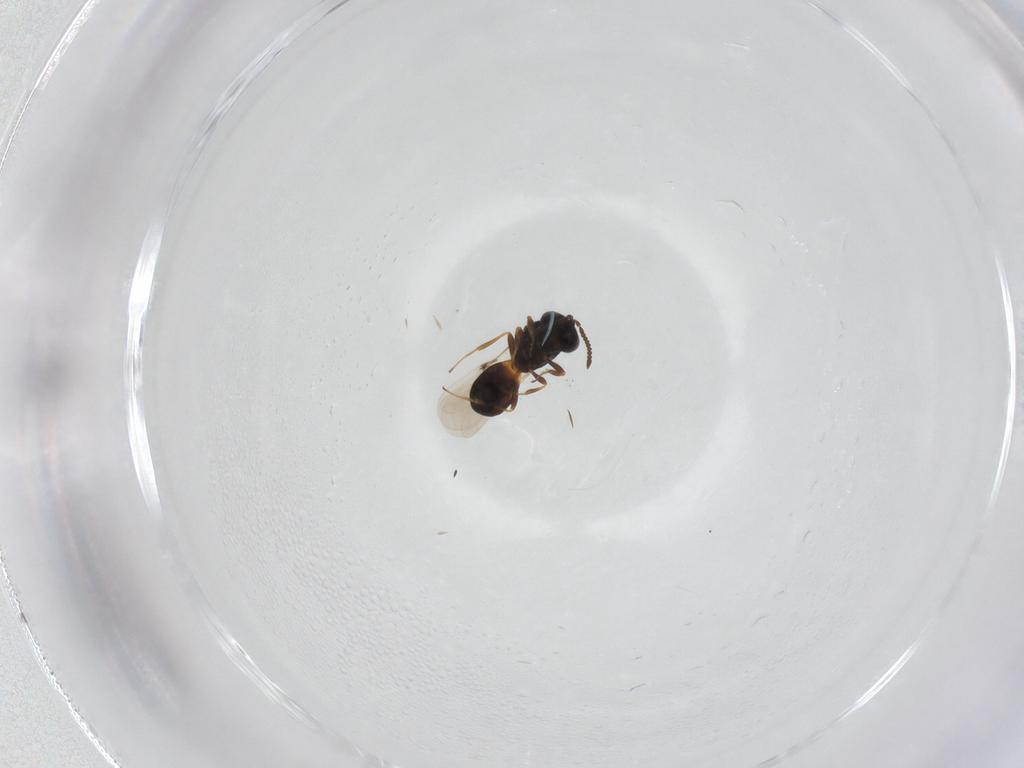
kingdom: Animalia
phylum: Arthropoda
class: Insecta
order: Hymenoptera
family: Scelionidae
